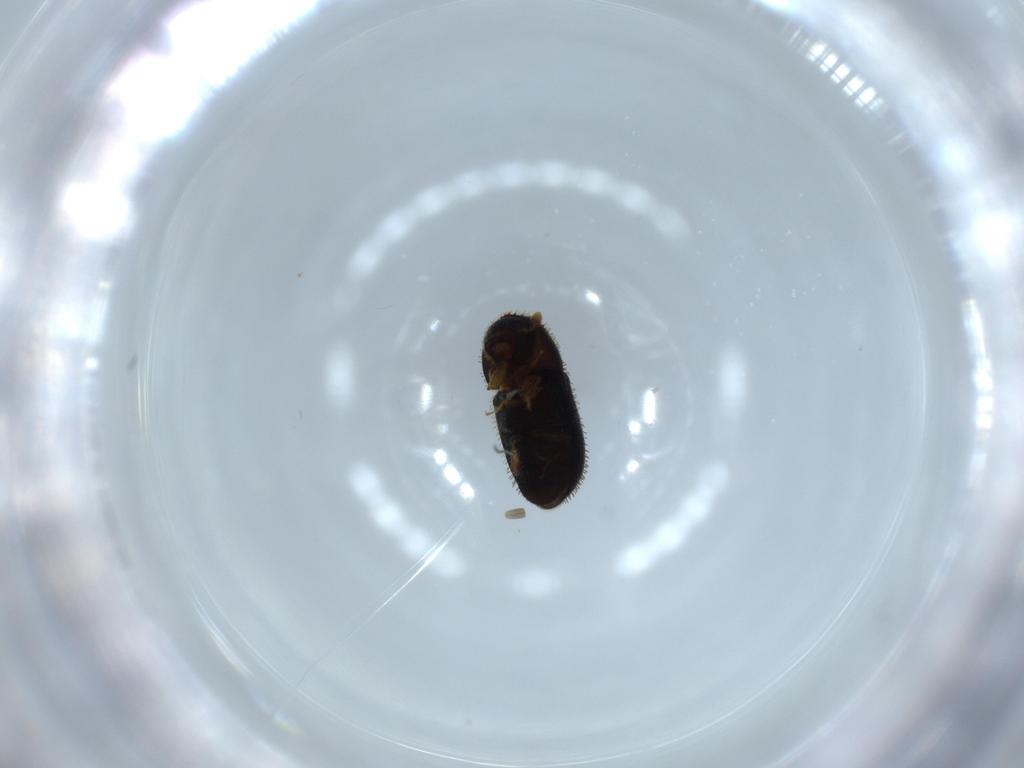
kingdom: Animalia
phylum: Arthropoda
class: Insecta
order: Coleoptera
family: Curculionidae
